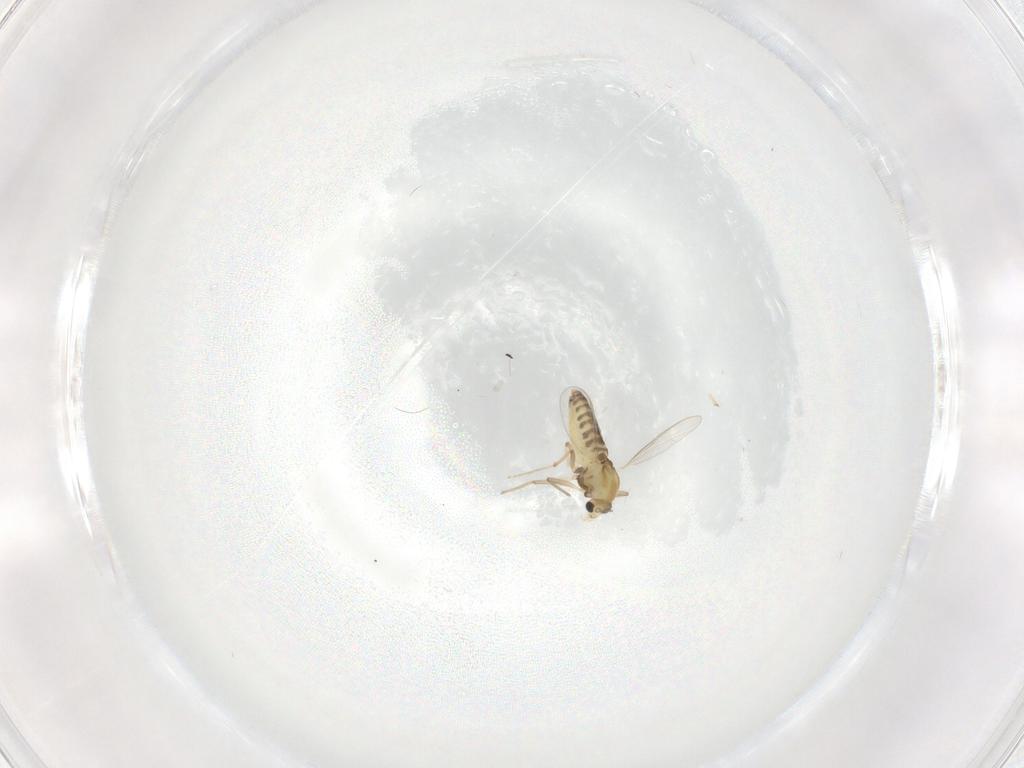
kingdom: Animalia
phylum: Arthropoda
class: Insecta
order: Diptera
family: Chironomidae
